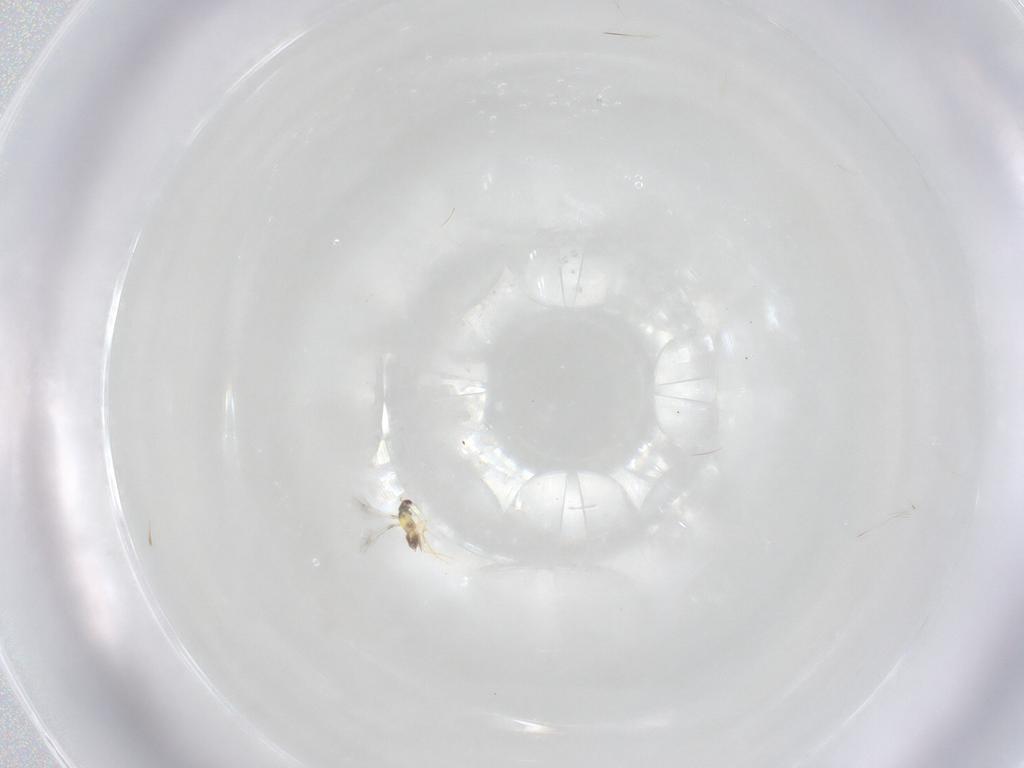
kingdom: Animalia
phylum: Arthropoda
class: Insecta
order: Hymenoptera
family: Mymaridae
